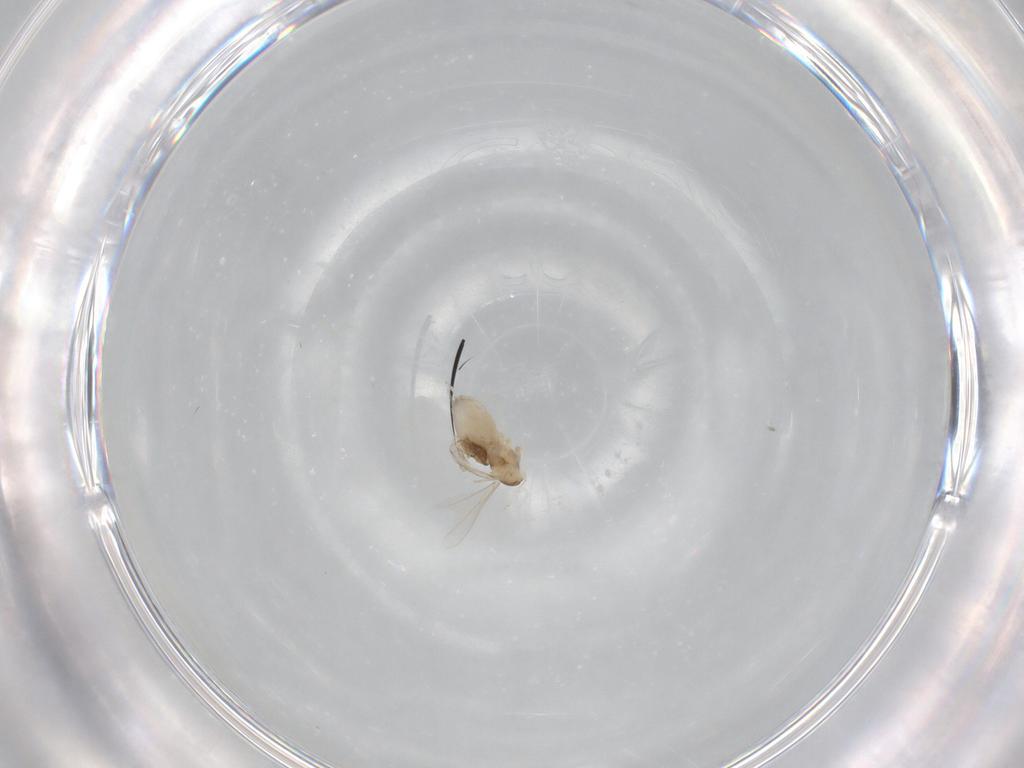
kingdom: Animalia
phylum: Arthropoda
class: Insecta
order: Diptera
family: Cecidomyiidae
